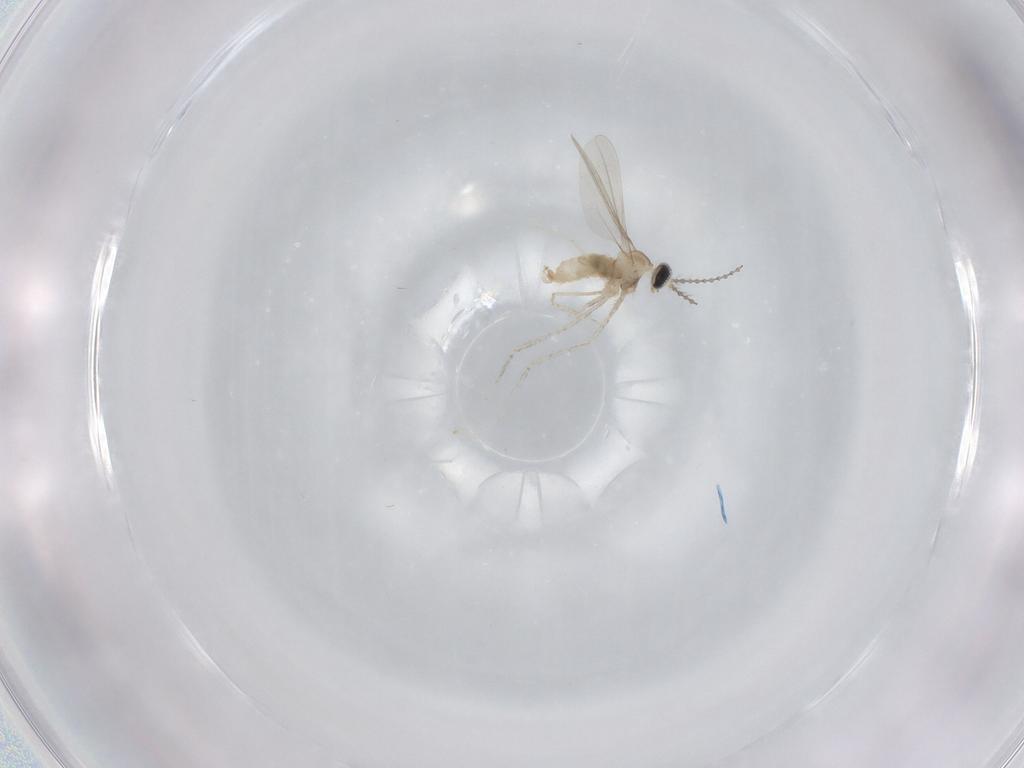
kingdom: Animalia
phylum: Arthropoda
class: Insecta
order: Diptera
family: Cecidomyiidae
